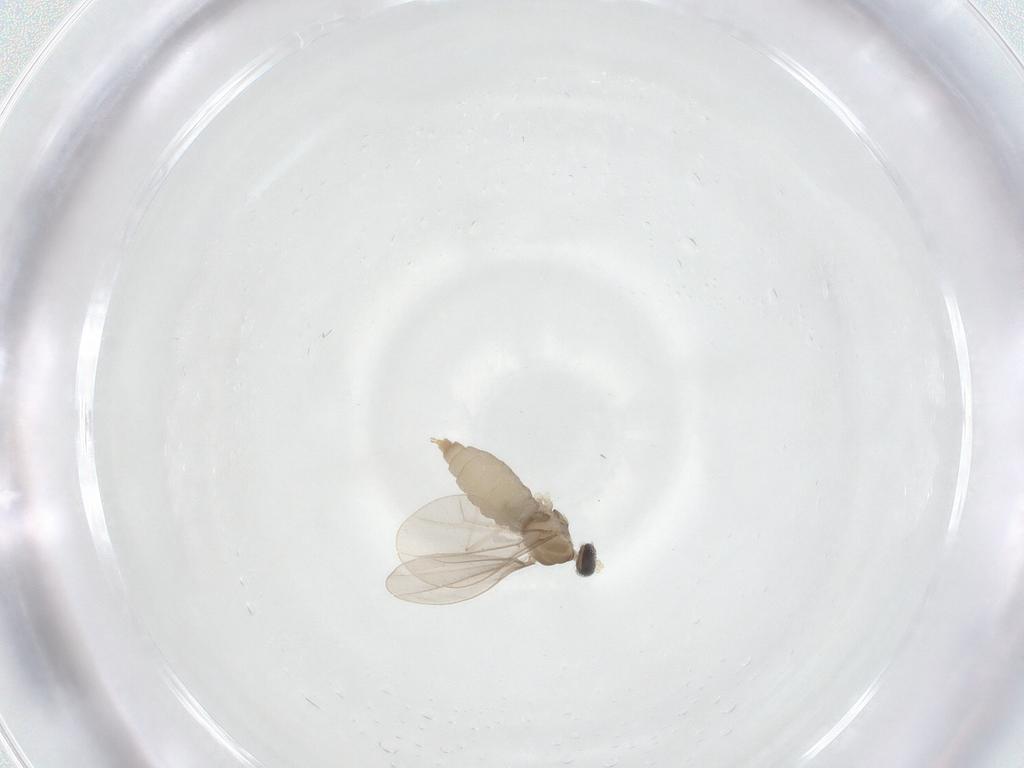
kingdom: Animalia
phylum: Arthropoda
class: Insecta
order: Diptera
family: Cecidomyiidae
